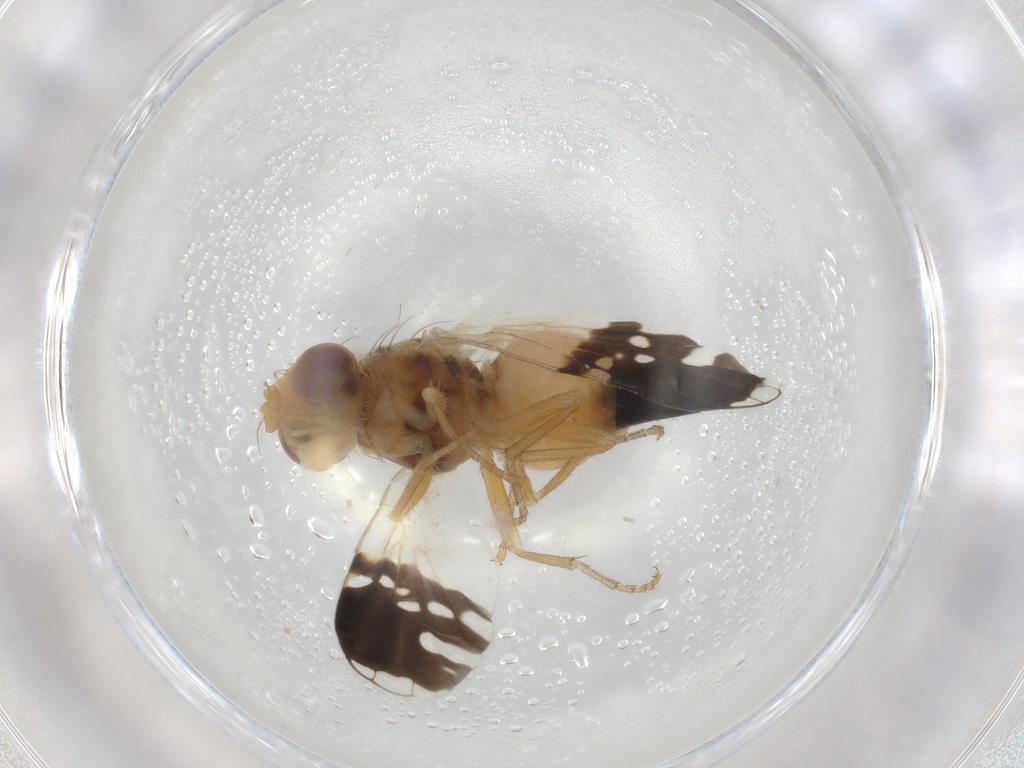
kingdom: Animalia
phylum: Arthropoda
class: Insecta
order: Diptera
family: Tephritidae
